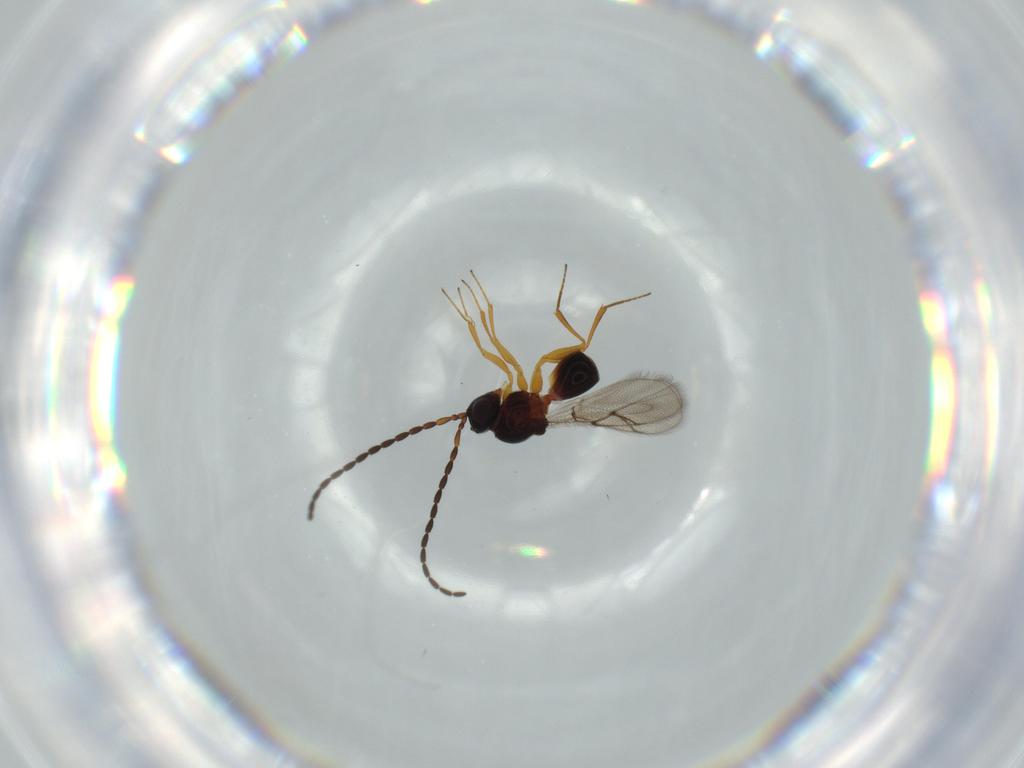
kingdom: Animalia
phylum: Arthropoda
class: Insecta
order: Hymenoptera
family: Figitidae
